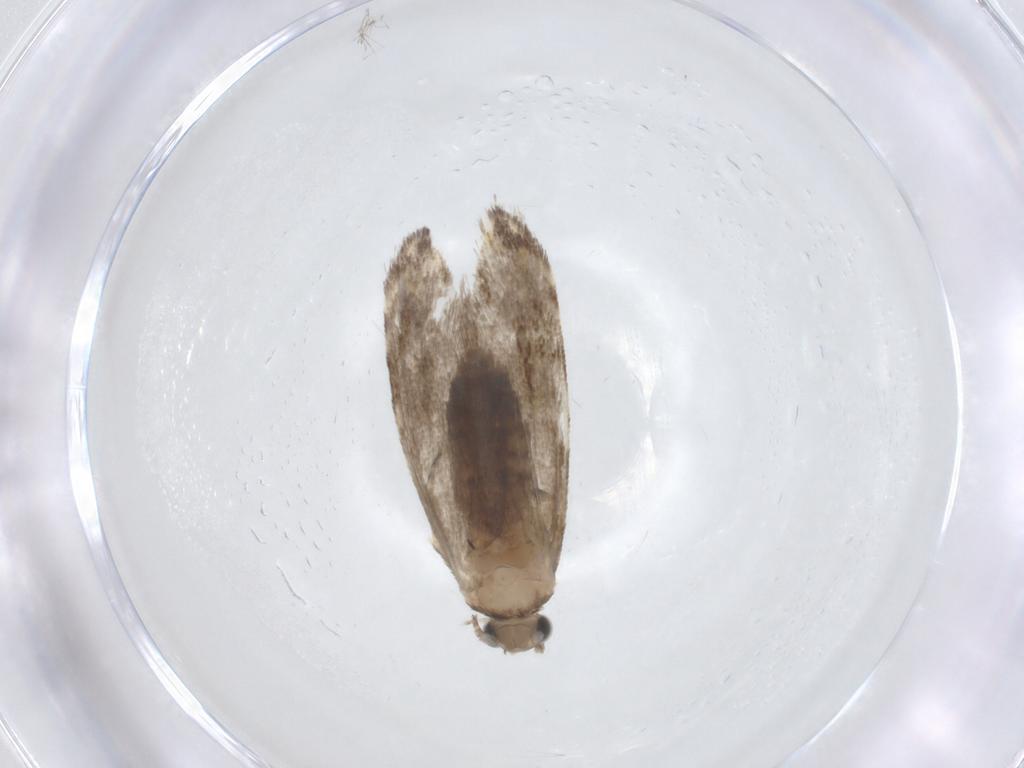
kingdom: Animalia
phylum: Arthropoda
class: Insecta
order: Lepidoptera
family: Tineidae
